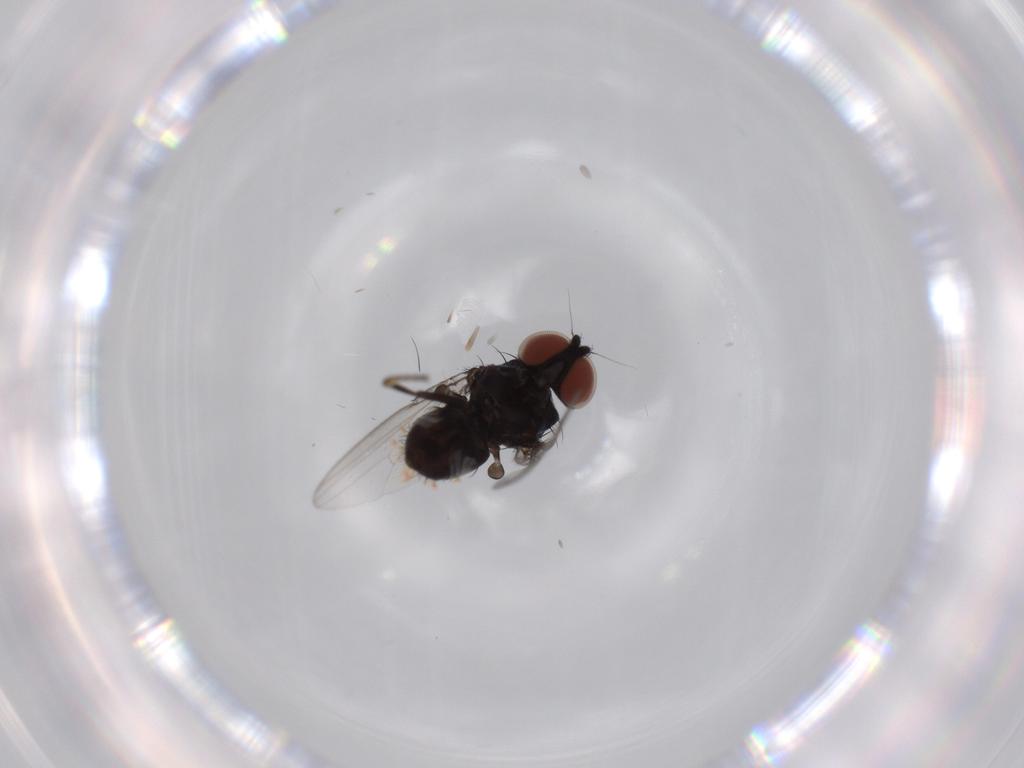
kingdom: Animalia
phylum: Arthropoda
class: Insecta
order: Diptera
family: Milichiidae
